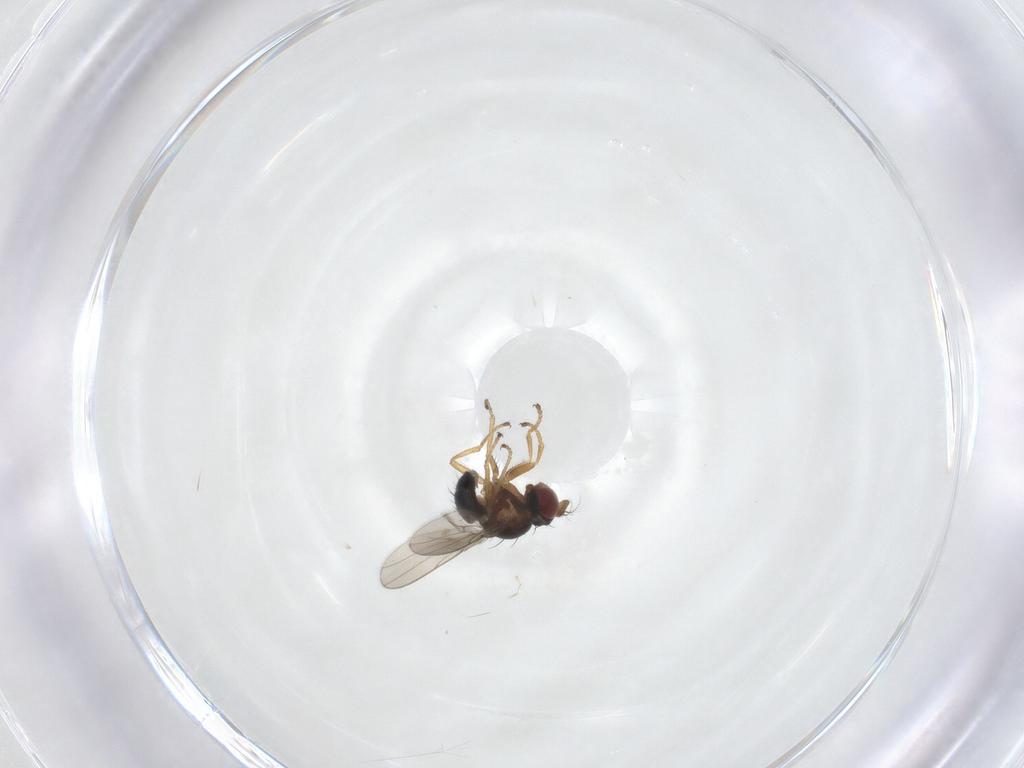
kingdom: Animalia
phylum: Arthropoda
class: Insecta
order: Diptera
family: Ephydridae
